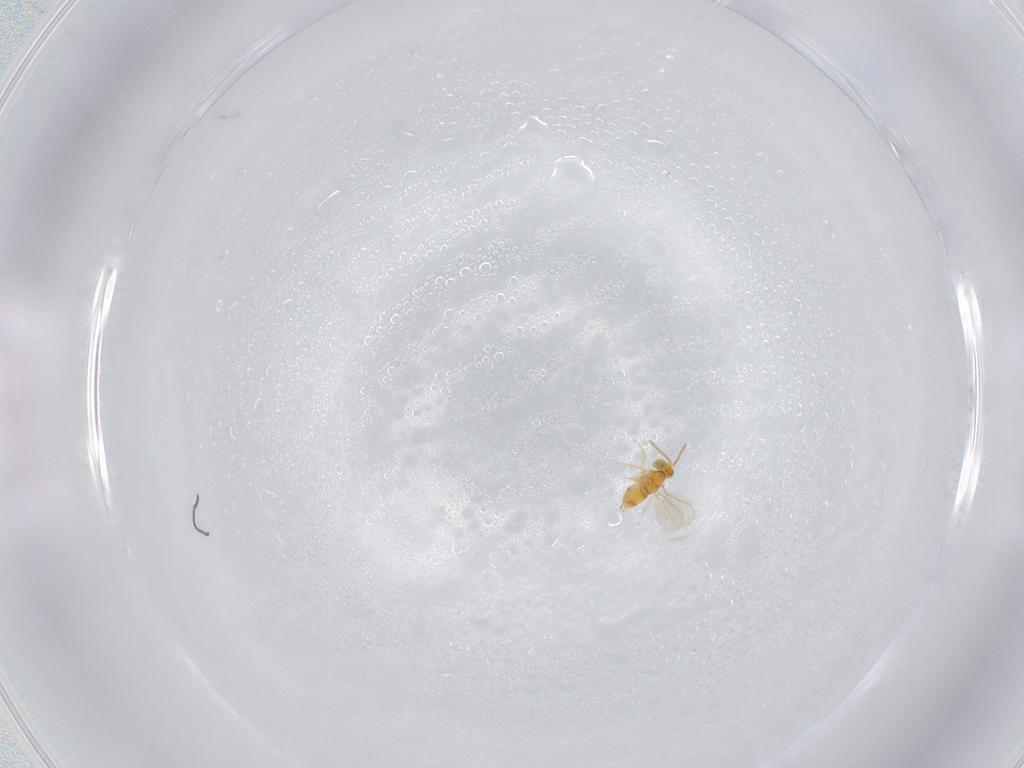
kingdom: Animalia
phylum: Arthropoda
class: Insecta
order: Hymenoptera
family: Aphelinidae
